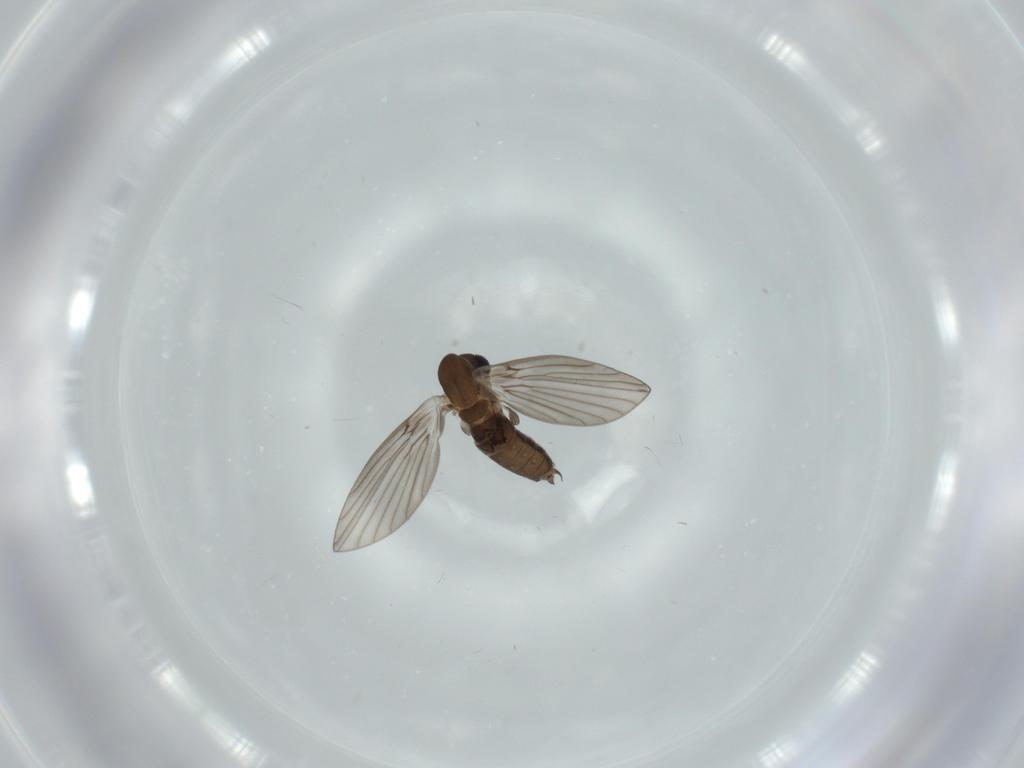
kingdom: Animalia
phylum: Arthropoda
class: Insecta
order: Diptera
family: Psychodidae
